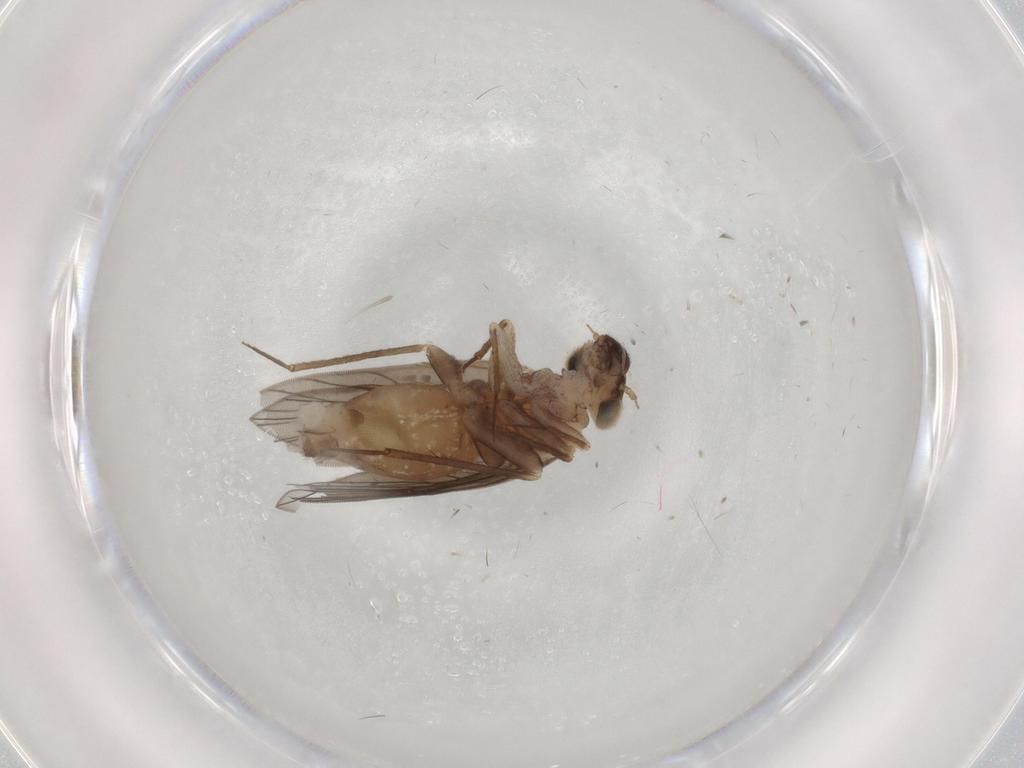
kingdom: Animalia
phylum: Arthropoda
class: Insecta
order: Psocodea
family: Lepidopsocidae
